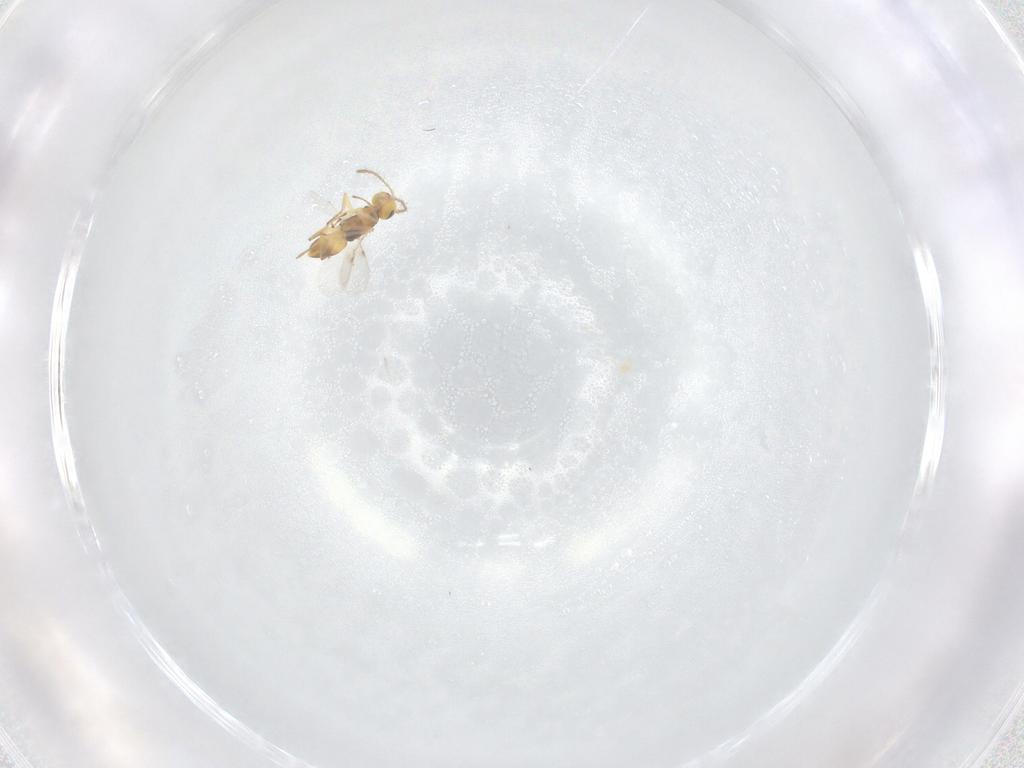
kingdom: Animalia
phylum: Arthropoda
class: Insecta
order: Hymenoptera
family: Encyrtidae
